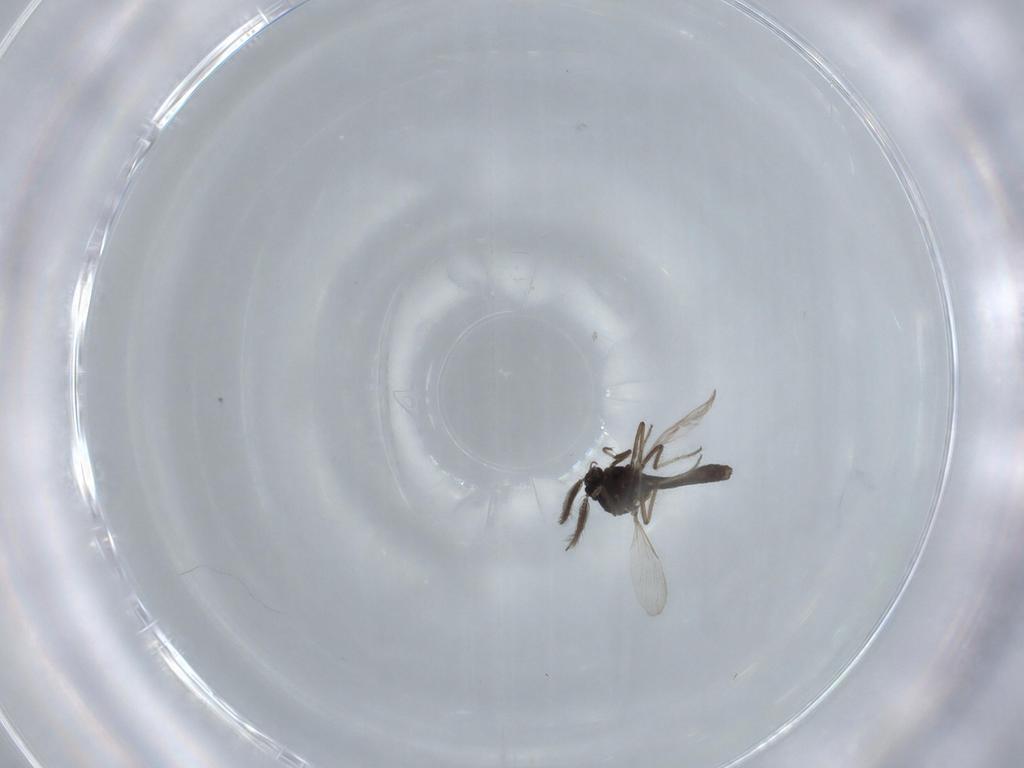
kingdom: Animalia
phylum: Arthropoda
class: Insecta
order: Diptera
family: Ceratopogonidae
